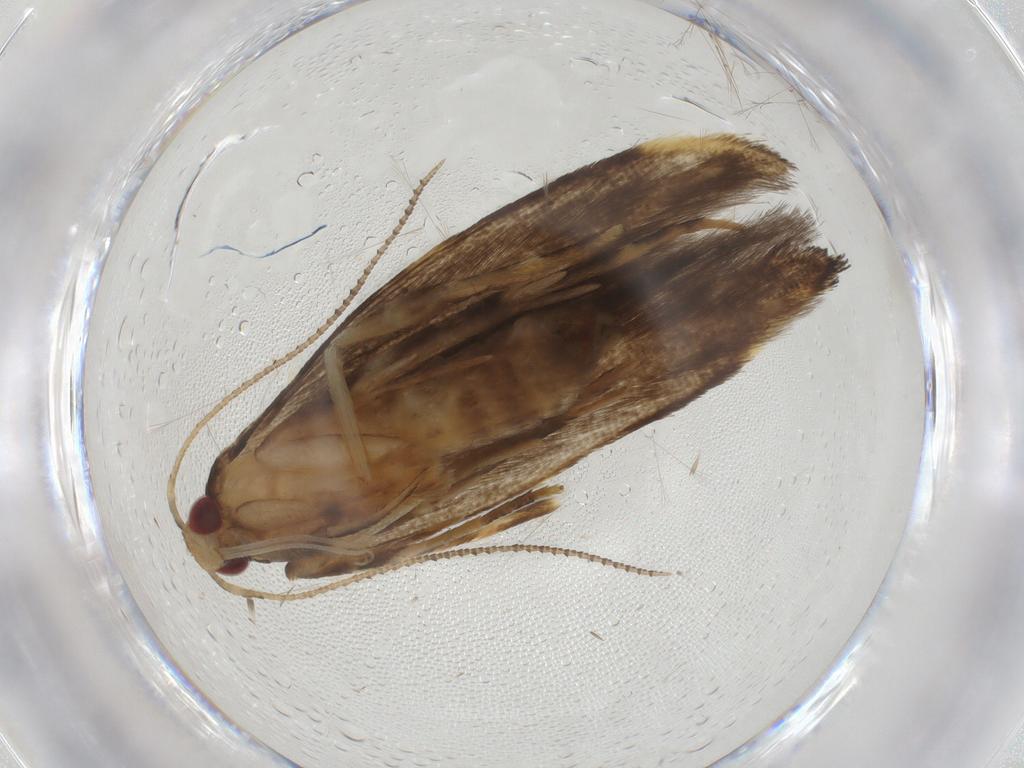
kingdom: Animalia
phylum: Arthropoda
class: Insecta
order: Lepidoptera
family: Cosmopterigidae
